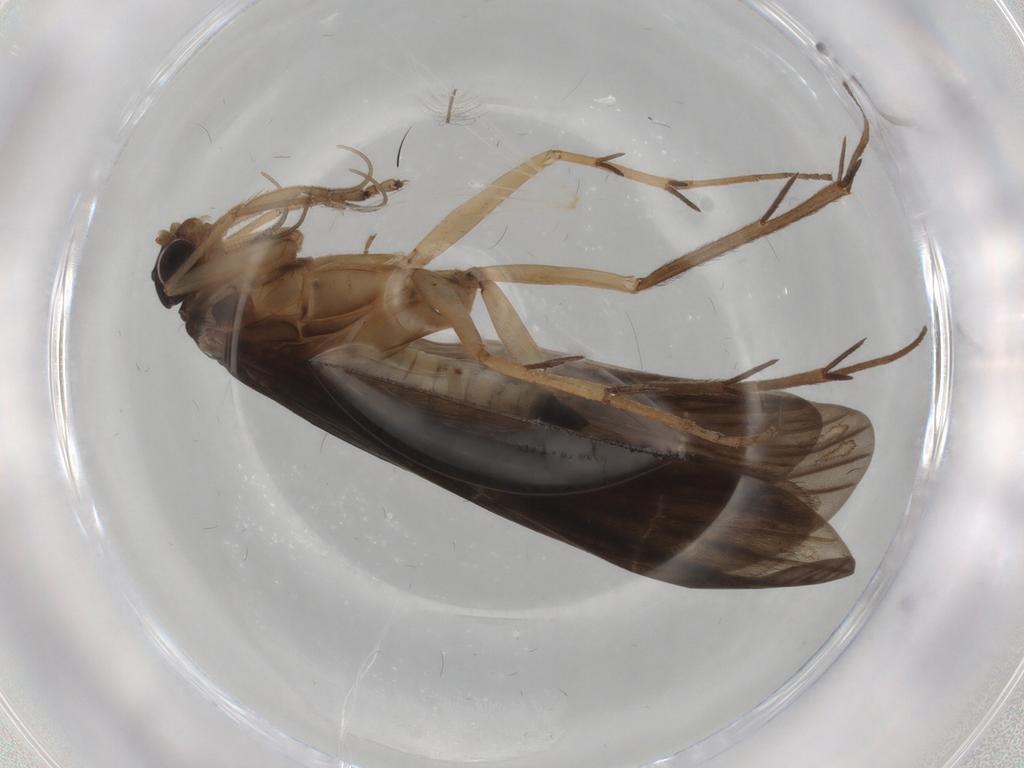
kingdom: Animalia
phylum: Arthropoda
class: Insecta
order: Trichoptera
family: Philopotamidae
